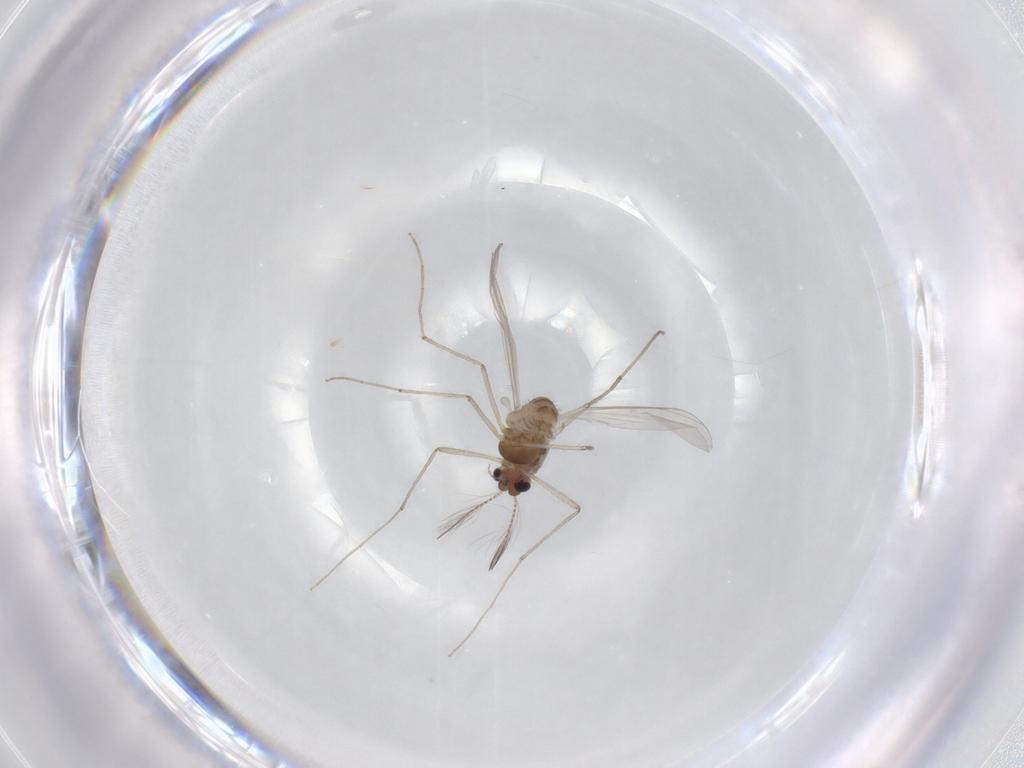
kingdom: Animalia
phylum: Arthropoda
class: Insecta
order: Diptera
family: Chironomidae
